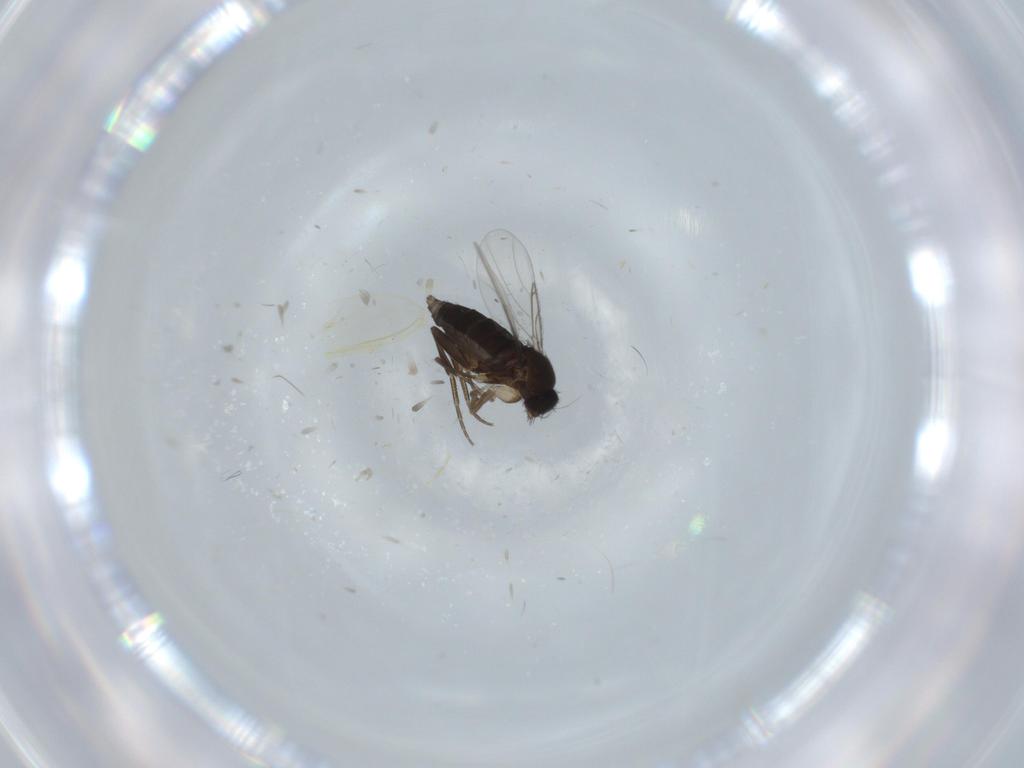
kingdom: Animalia
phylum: Arthropoda
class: Insecta
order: Diptera
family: Phoridae
